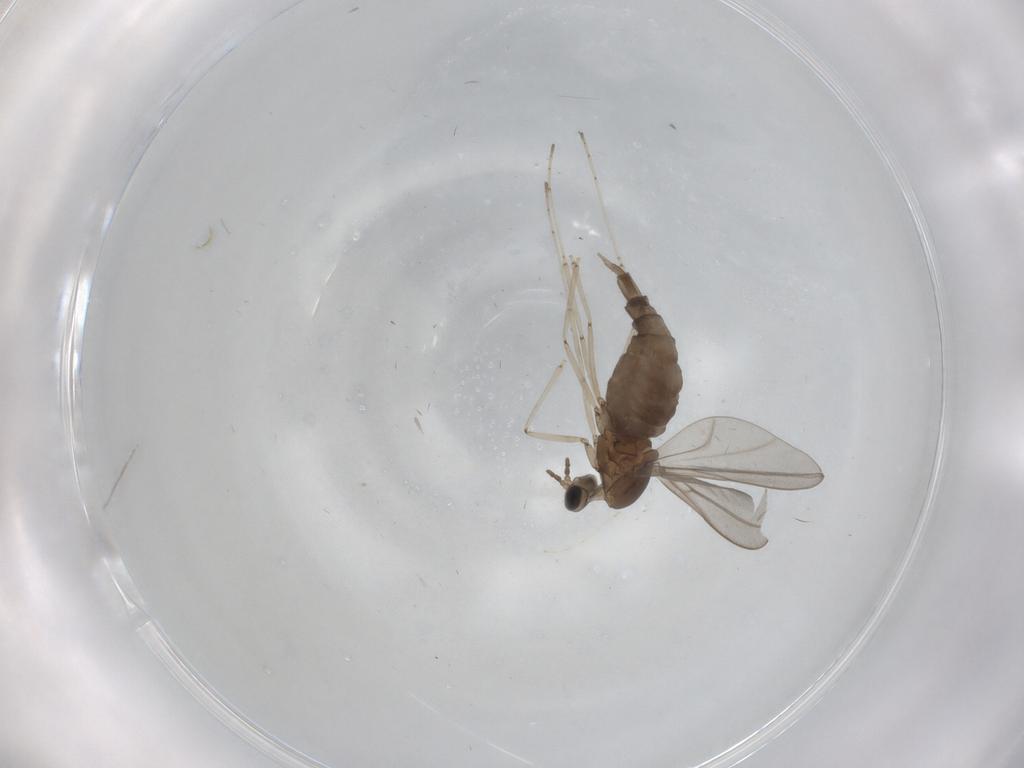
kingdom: Animalia
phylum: Arthropoda
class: Insecta
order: Diptera
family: Cecidomyiidae
